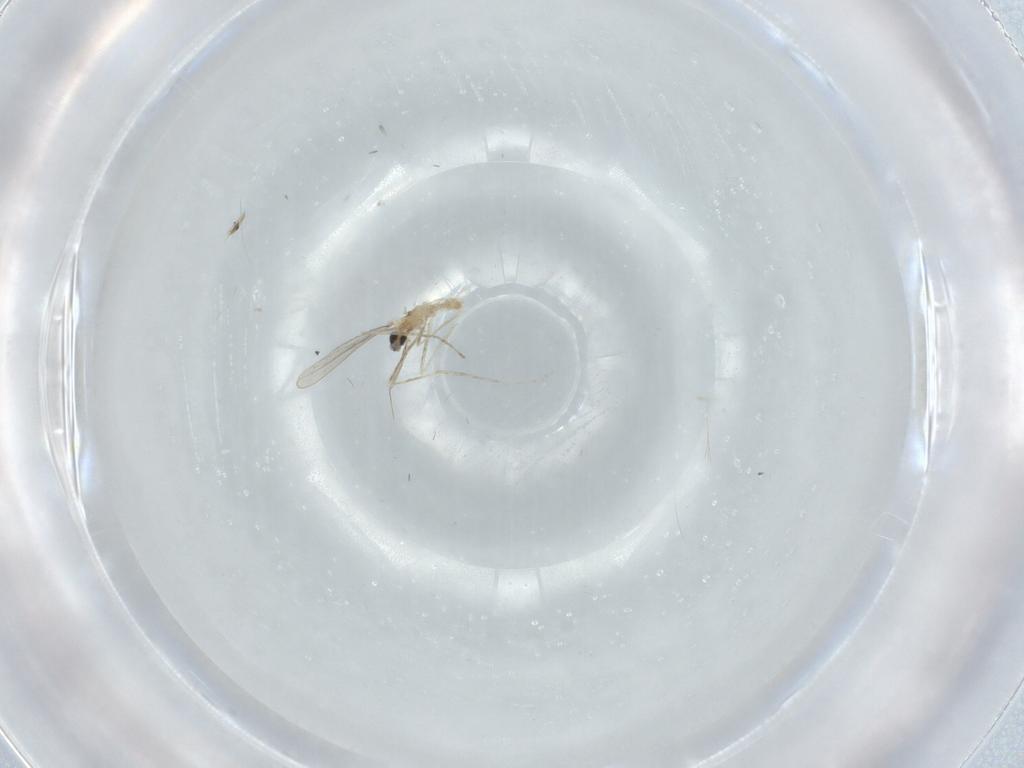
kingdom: Animalia
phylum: Arthropoda
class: Insecta
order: Diptera
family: Cecidomyiidae
